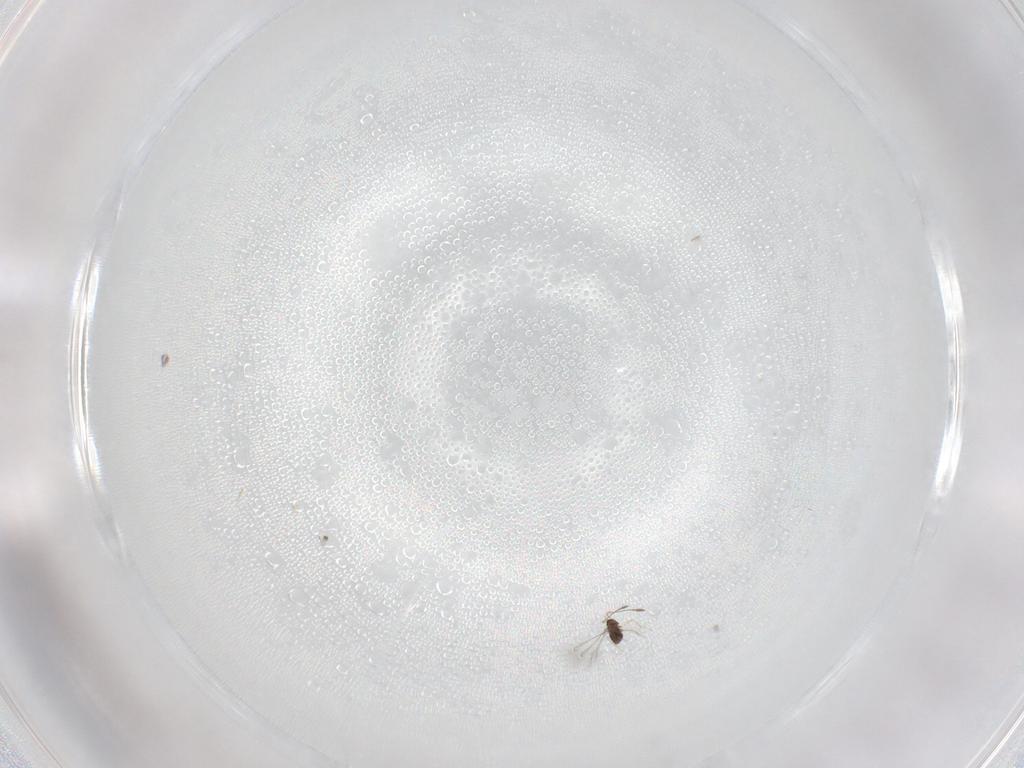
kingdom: Animalia
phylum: Arthropoda
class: Insecta
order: Hymenoptera
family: Trichogrammatidae
